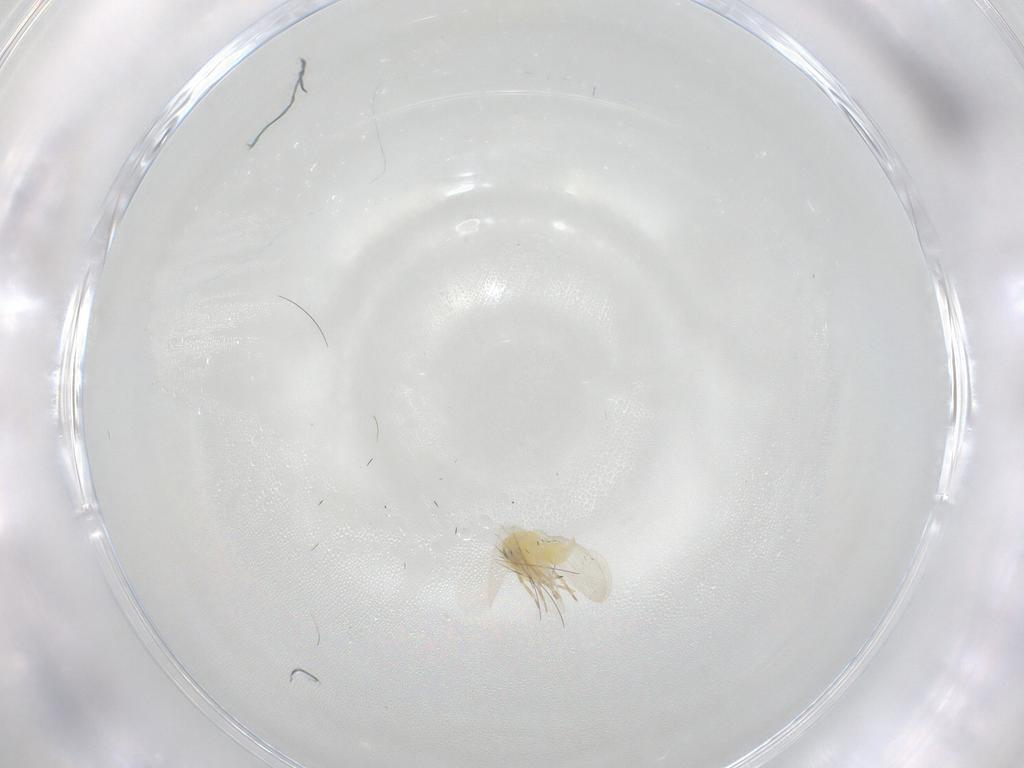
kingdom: Animalia
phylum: Arthropoda
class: Insecta
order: Hemiptera
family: Aleyrodidae
